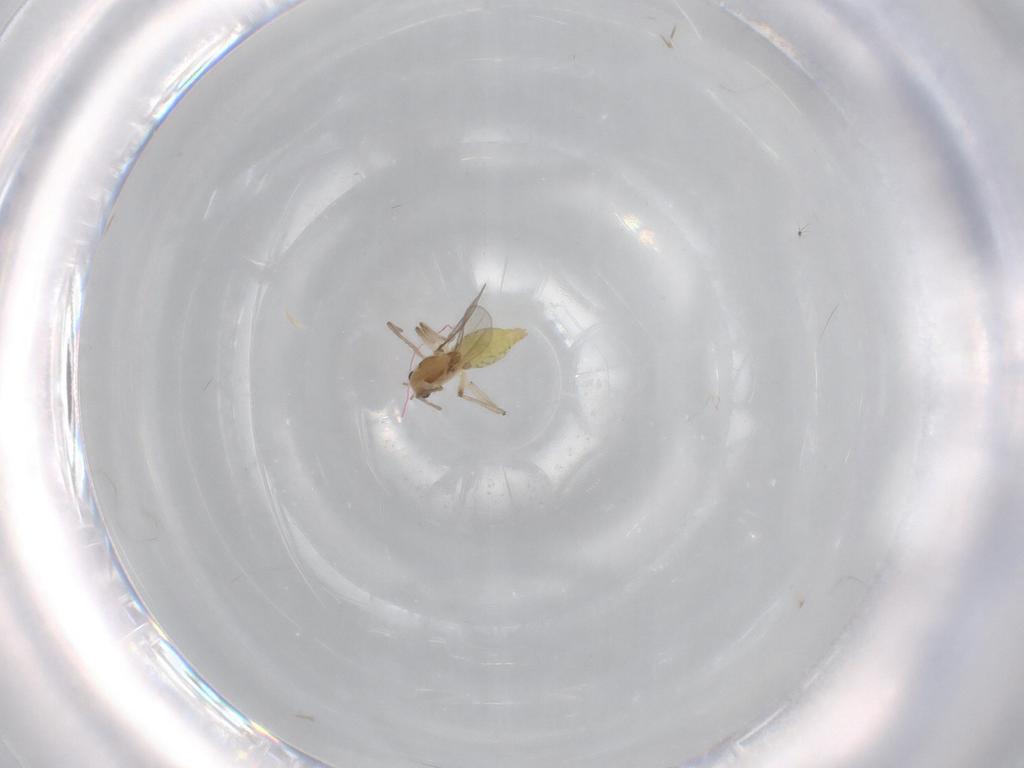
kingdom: Animalia
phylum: Arthropoda
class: Insecta
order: Diptera
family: Chironomidae
